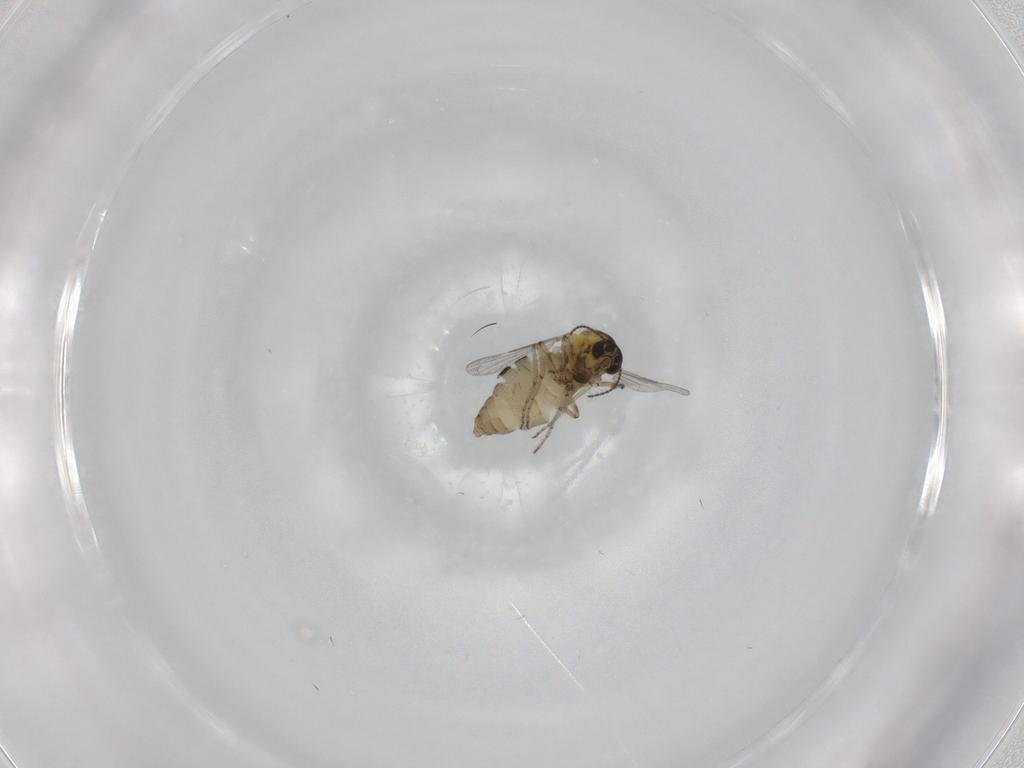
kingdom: Animalia
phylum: Arthropoda
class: Insecta
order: Diptera
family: Ceratopogonidae
